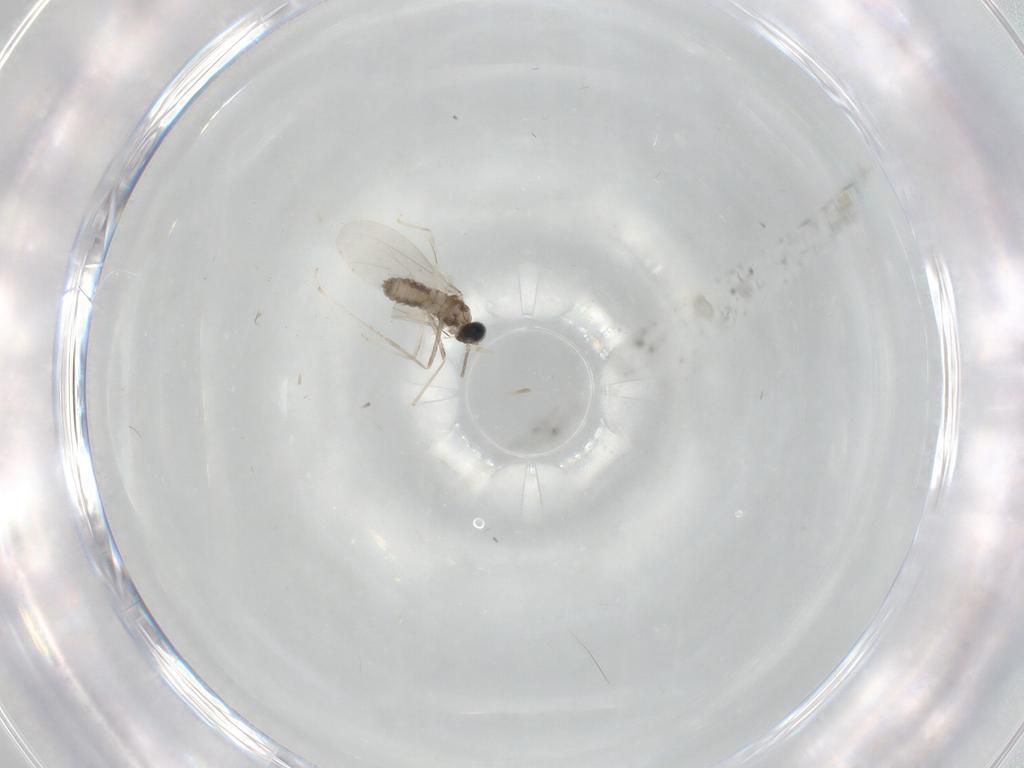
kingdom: Animalia
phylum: Arthropoda
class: Insecta
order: Diptera
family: Cecidomyiidae
